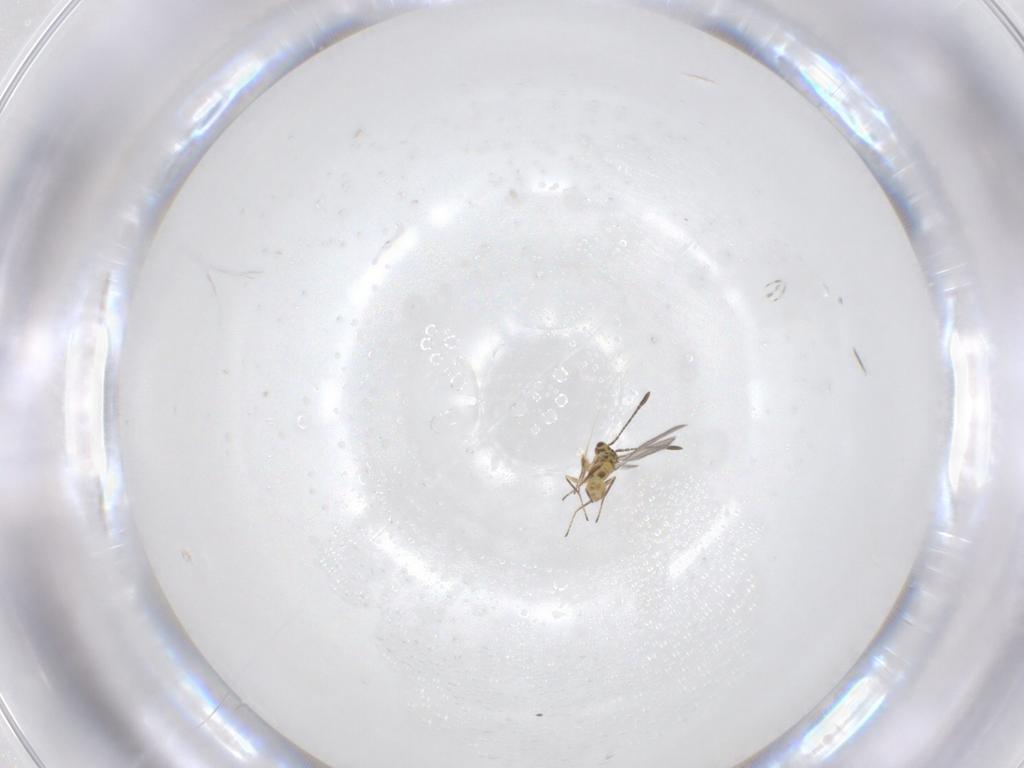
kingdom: Animalia
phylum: Arthropoda
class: Insecta
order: Hymenoptera
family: Mymaridae
